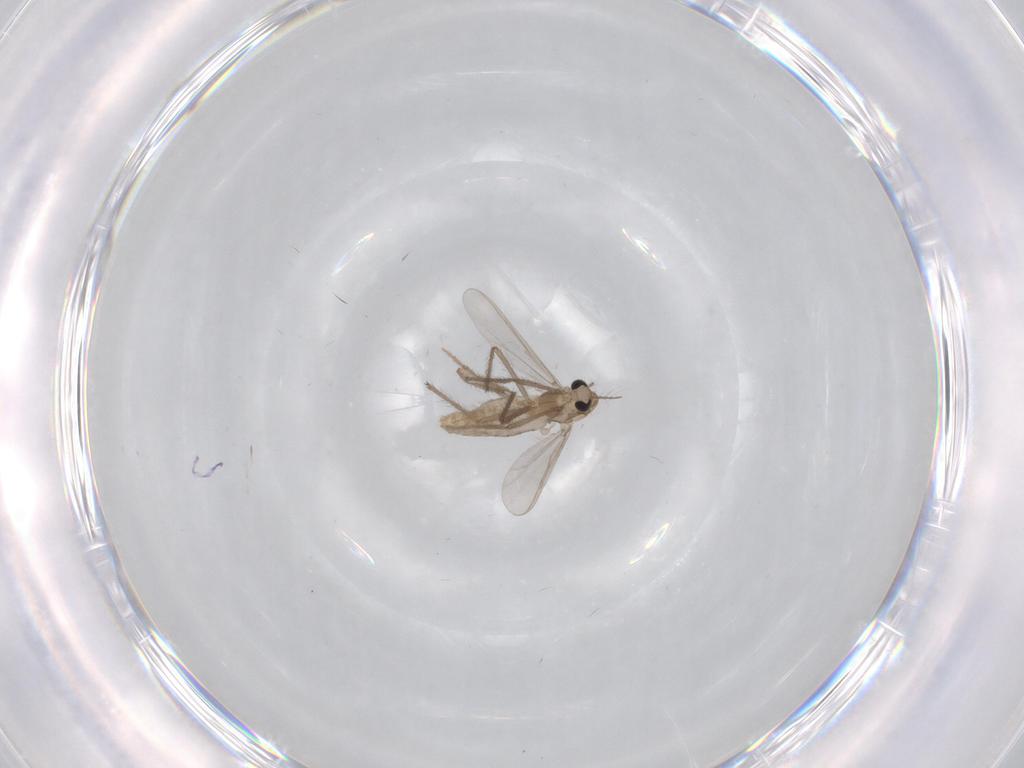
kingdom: Animalia
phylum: Arthropoda
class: Insecta
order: Diptera
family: Chironomidae
